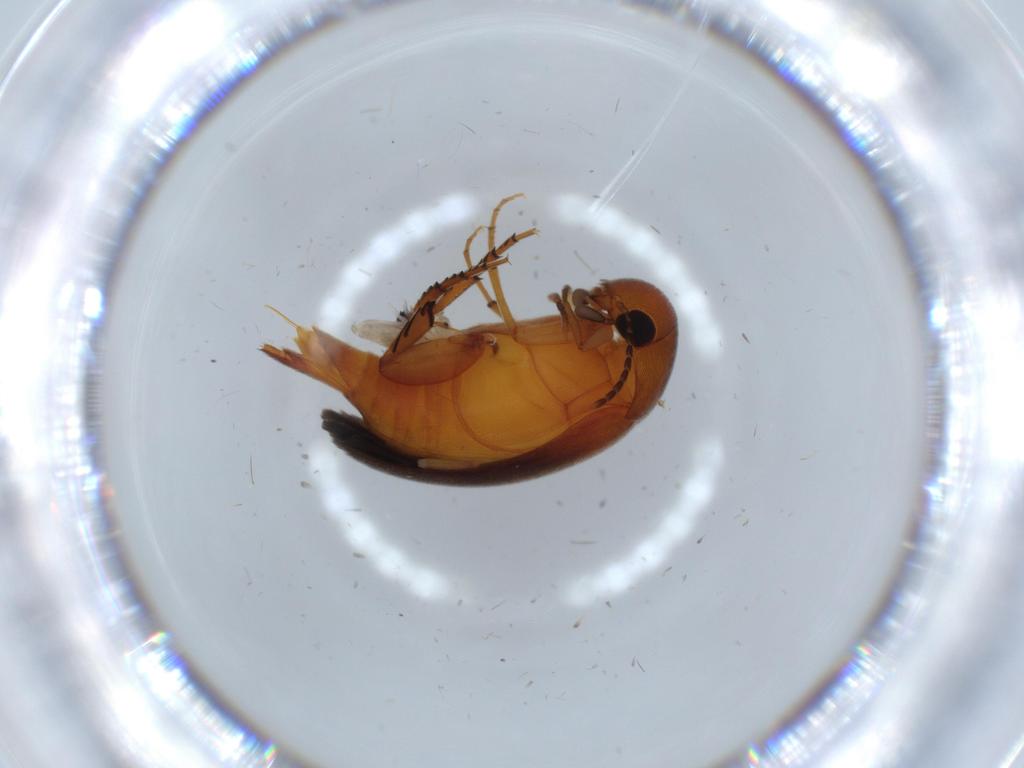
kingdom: Animalia
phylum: Arthropoda
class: Insecta
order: Coleoptera
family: Mordellidae
